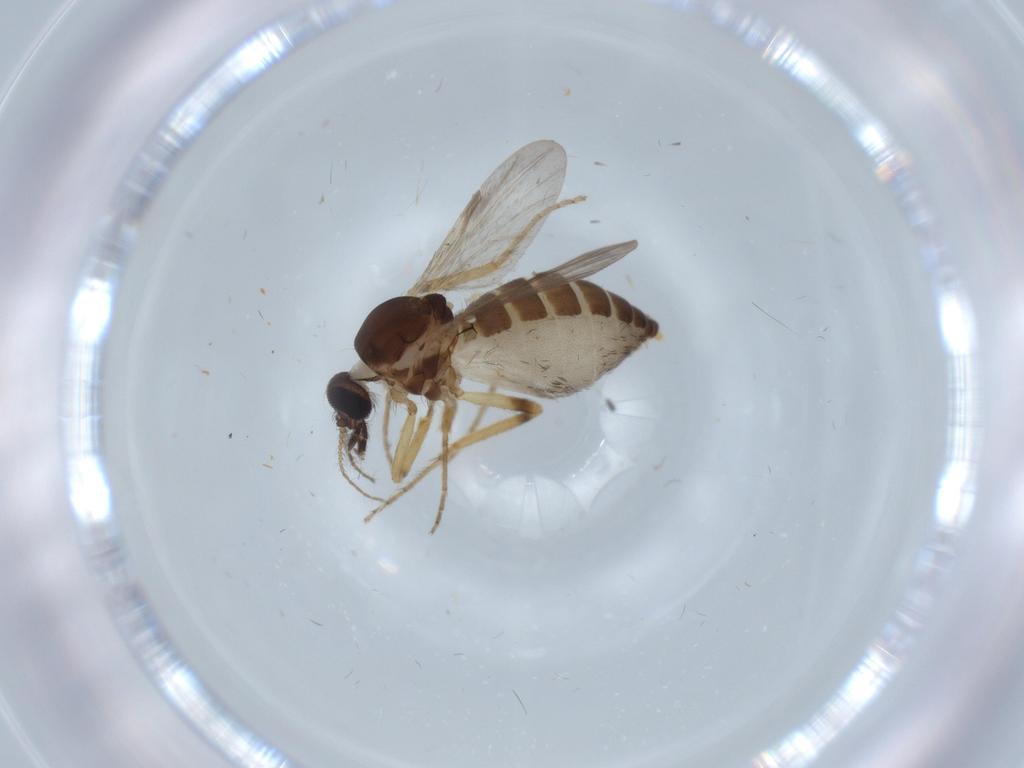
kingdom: Animalia
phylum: Arthropoda
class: Insecta
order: Diptera
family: Ceratopogonidae
